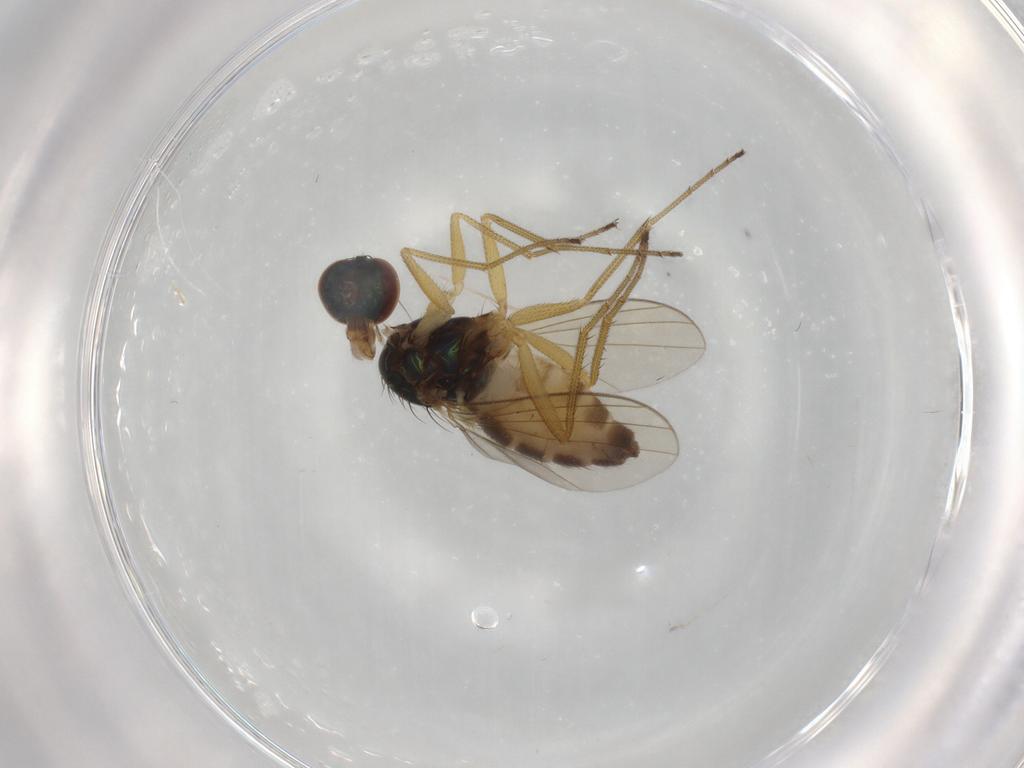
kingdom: Animalia
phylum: Arthropoda
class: Insecta
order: Diptera
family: Dolichopodidae
